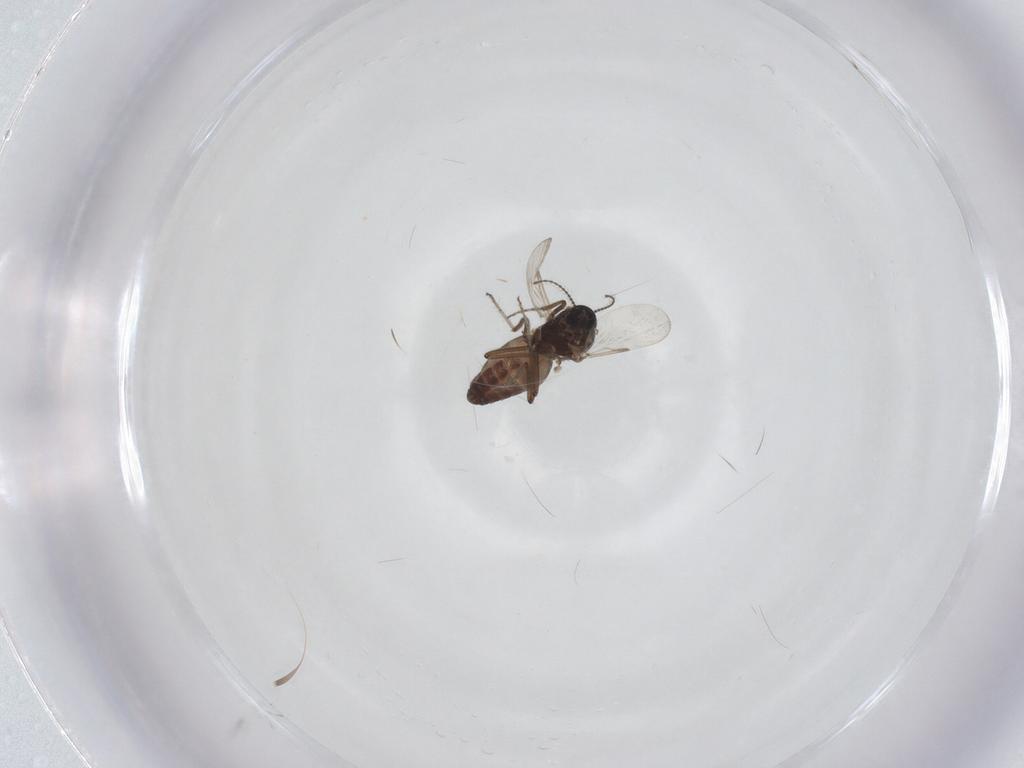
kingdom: Animalia
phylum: Arthropoda
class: Insecta
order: Diptera
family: Ceratopogonidae
